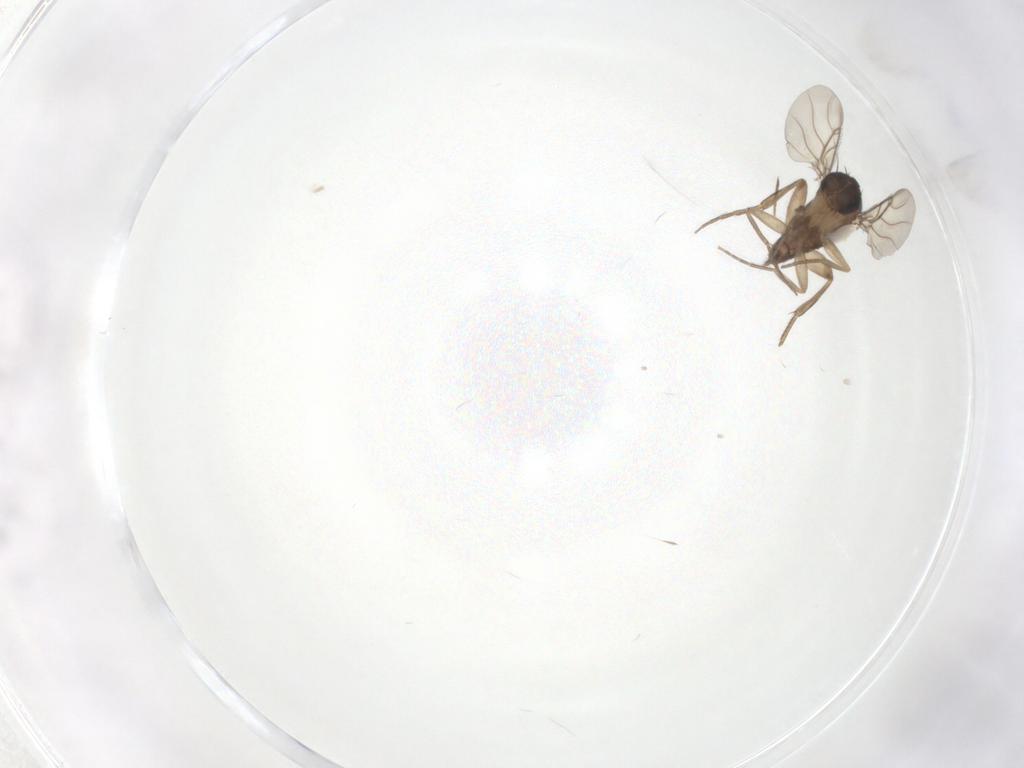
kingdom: Animalia
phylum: Arthropoda
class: Insecta
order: Diptera
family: Phoridae
